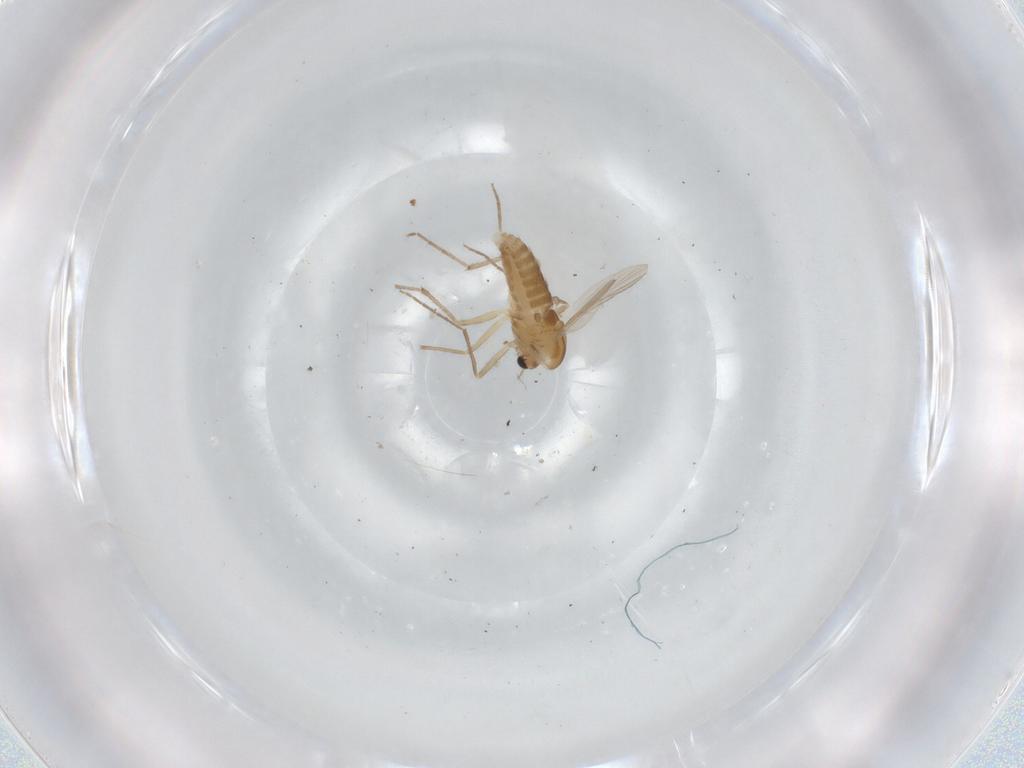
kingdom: Animalia
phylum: Arthropoda
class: Insecta
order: Diptera
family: Chironomidae
